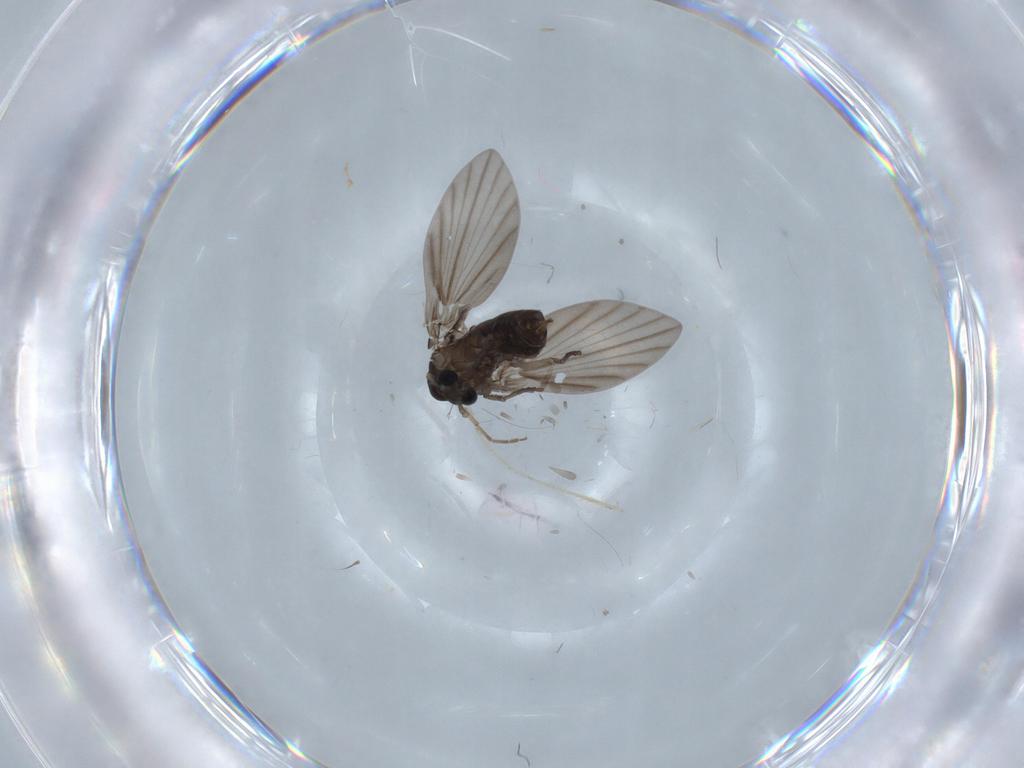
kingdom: Animalia
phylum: Arthropoda
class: Insecta
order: Diptera
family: Psychodidae
